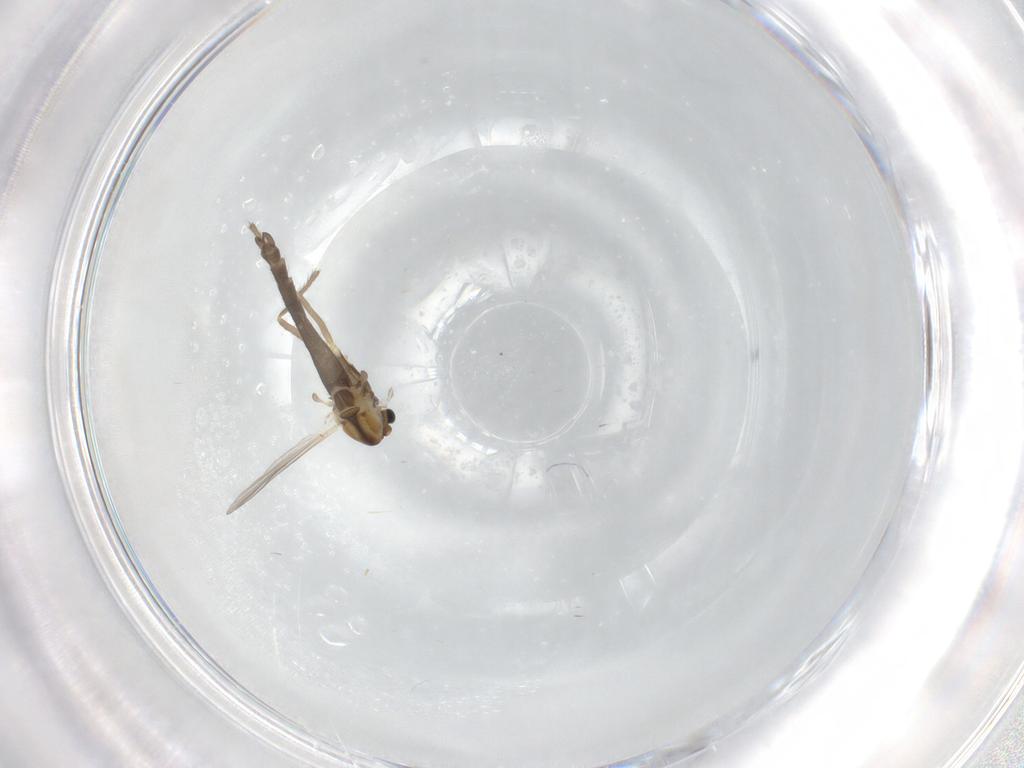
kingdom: Animalia
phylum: Arthropoda
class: Insecta
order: Diptera
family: Chironomidae
